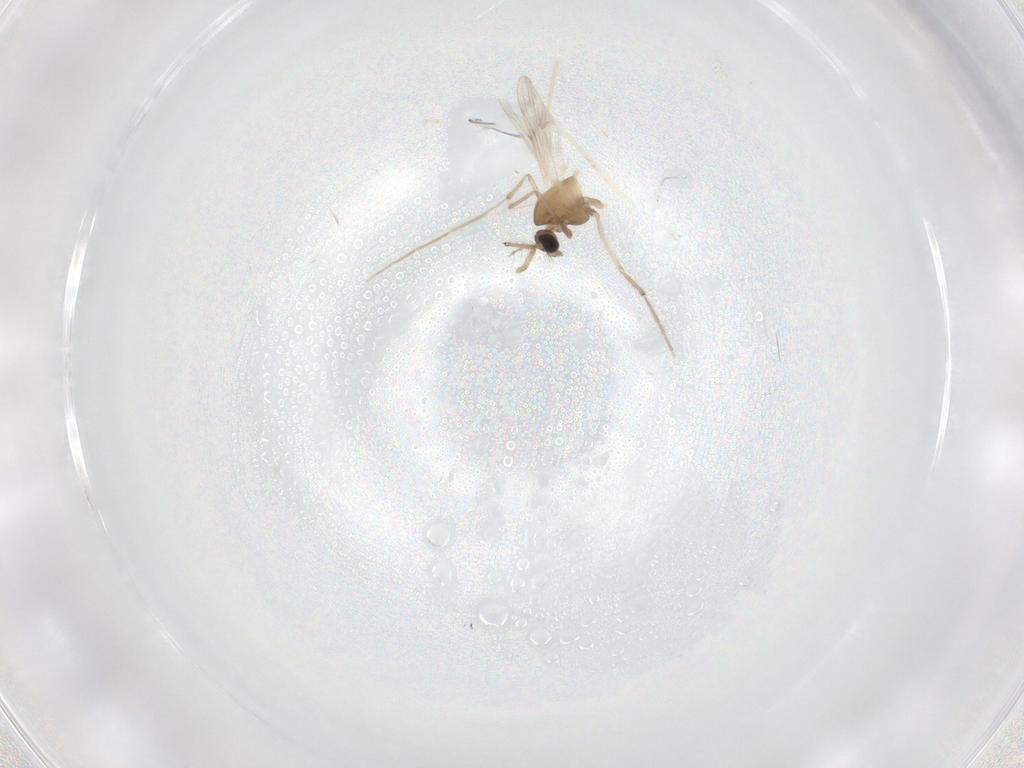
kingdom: Animalia
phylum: Arthropoda
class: Insecta
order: Diptera
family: Chironomidae
